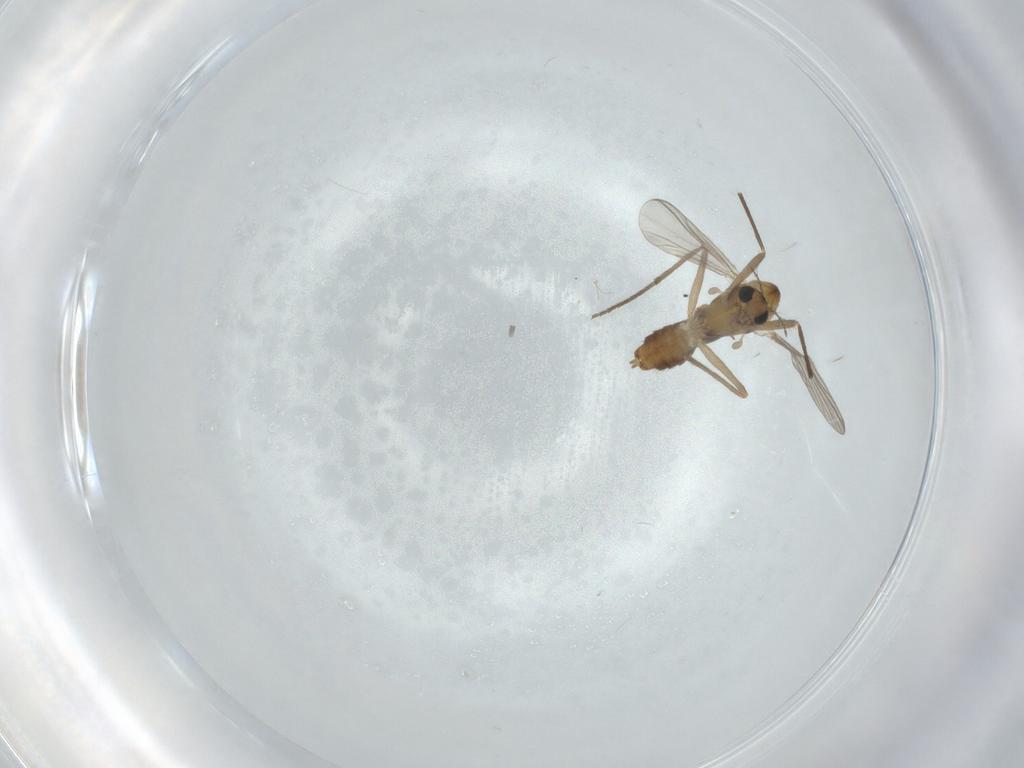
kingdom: Animalia
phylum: Arthropoda
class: Insecta
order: Diptera
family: Chironomidae
